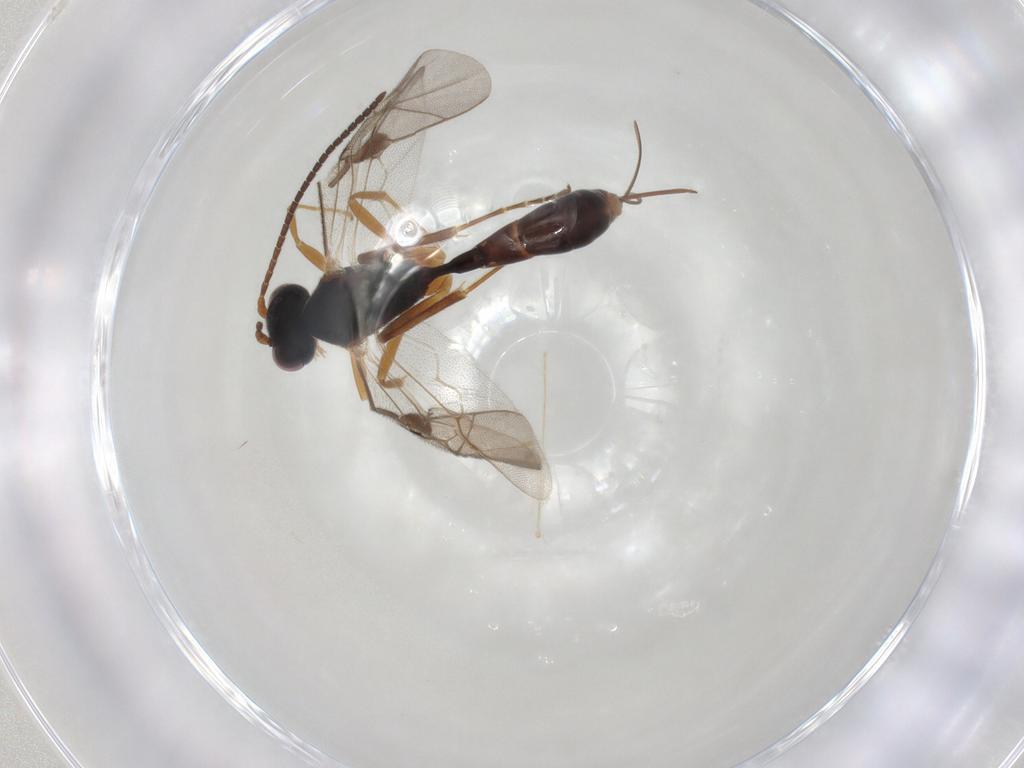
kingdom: Animalia
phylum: Arthropoda
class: Insecta
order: Hymenoptera
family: Ichneumonidae
